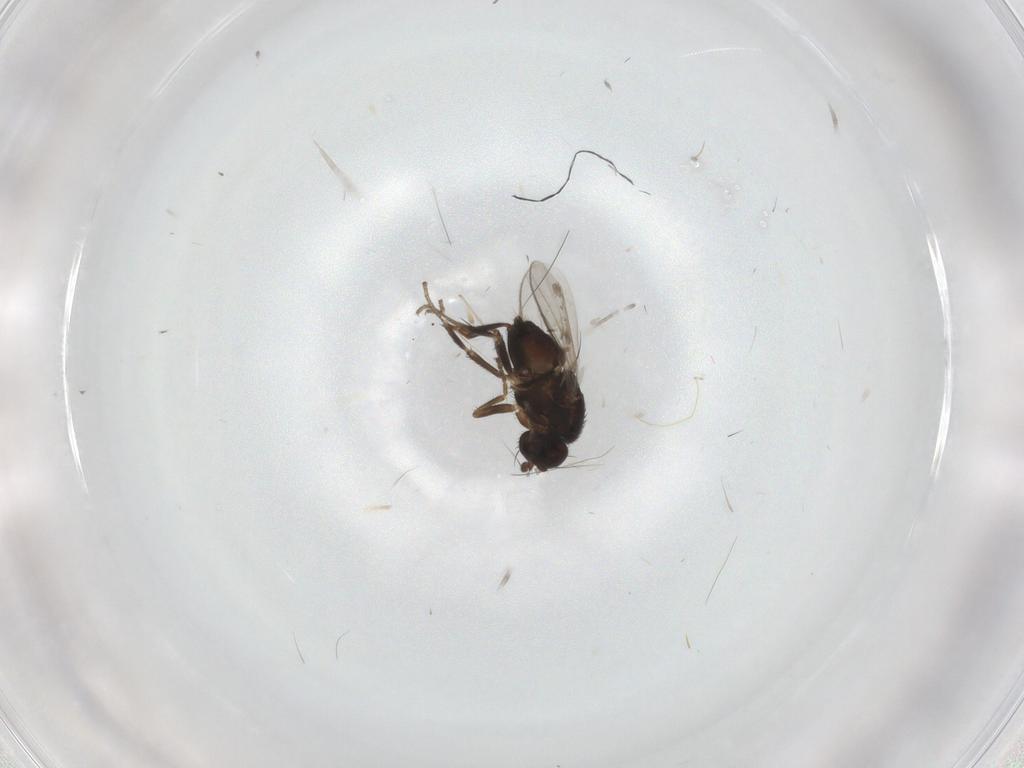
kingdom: Animalia
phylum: Arthropoda
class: Insecta
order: Diptera
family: Sphaeroceridae
